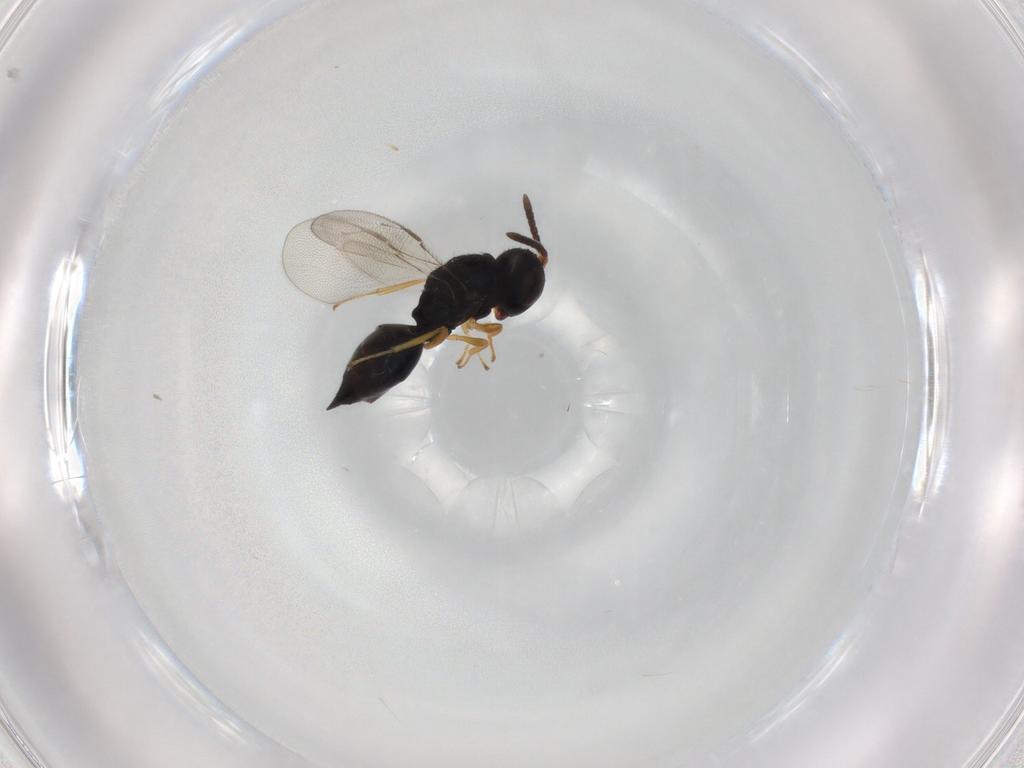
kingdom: Animalia
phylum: Arthropoda
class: Insecta
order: Hymenoptera
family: Pteromalidae
